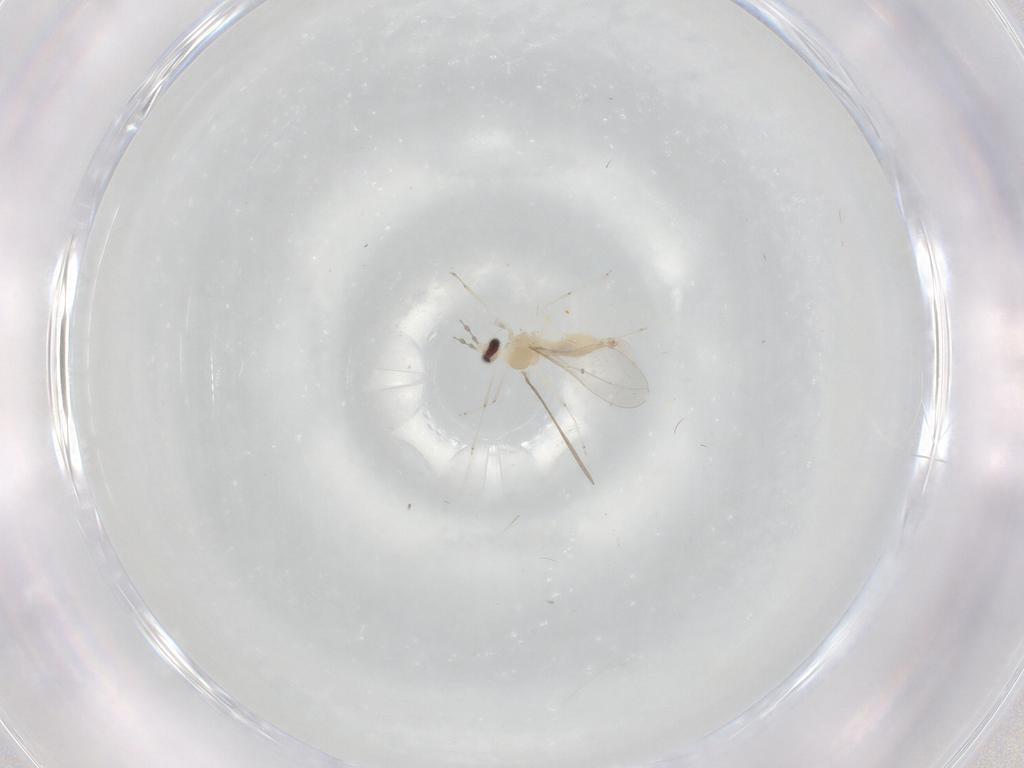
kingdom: Animalia
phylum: Arthropoda
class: Insecta
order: Diptera
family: Cecidomyiidae
